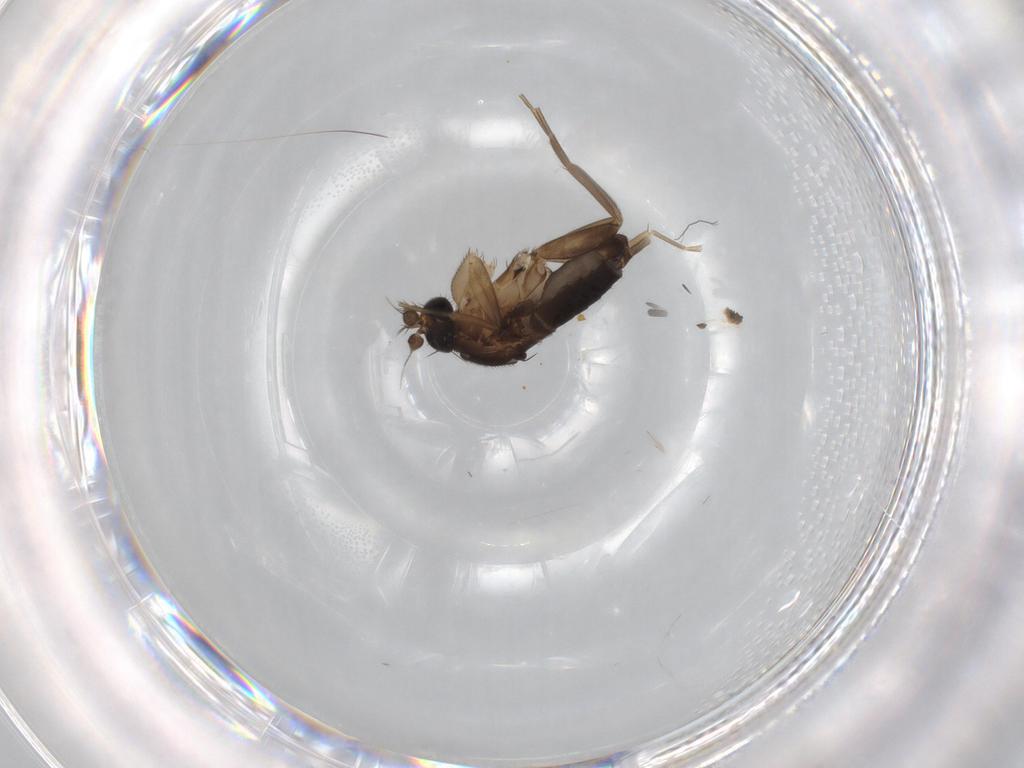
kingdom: Animalia
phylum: Arthropoda
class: Insecta
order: Diptera
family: Phoridae
